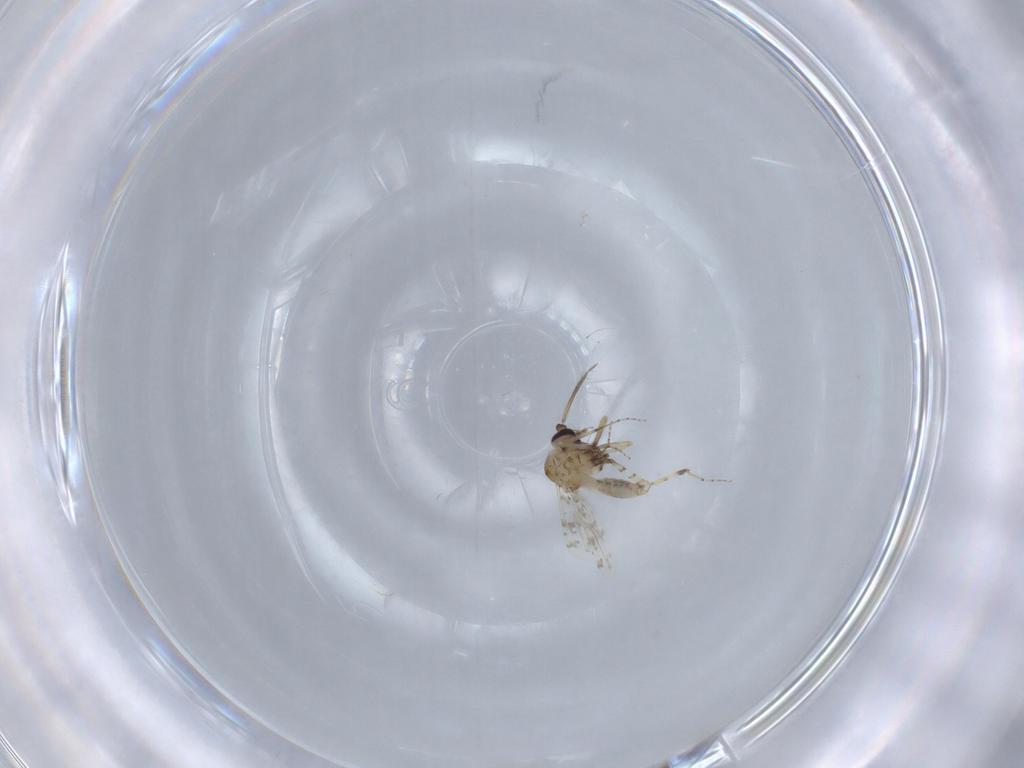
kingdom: Animalia
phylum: Arthropoda
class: Insecta
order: Diptera
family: Ceratopogonidae
